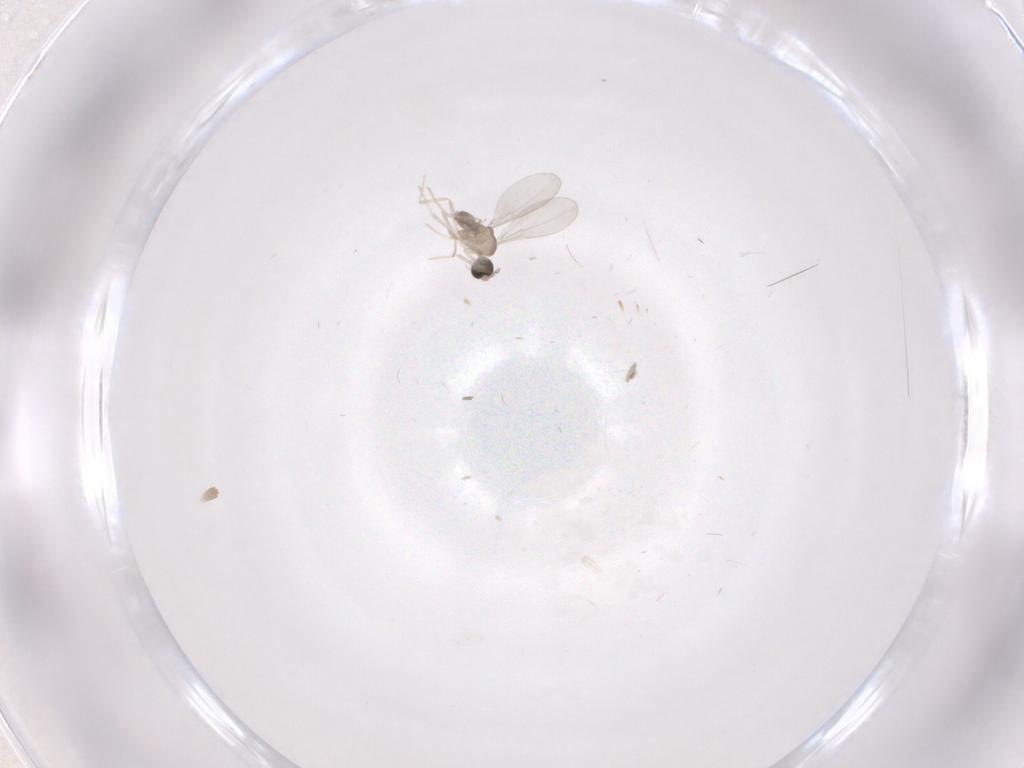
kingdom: Animalia
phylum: Arthropoda
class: Insecta
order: Diptera
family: Cecidomyiidae
